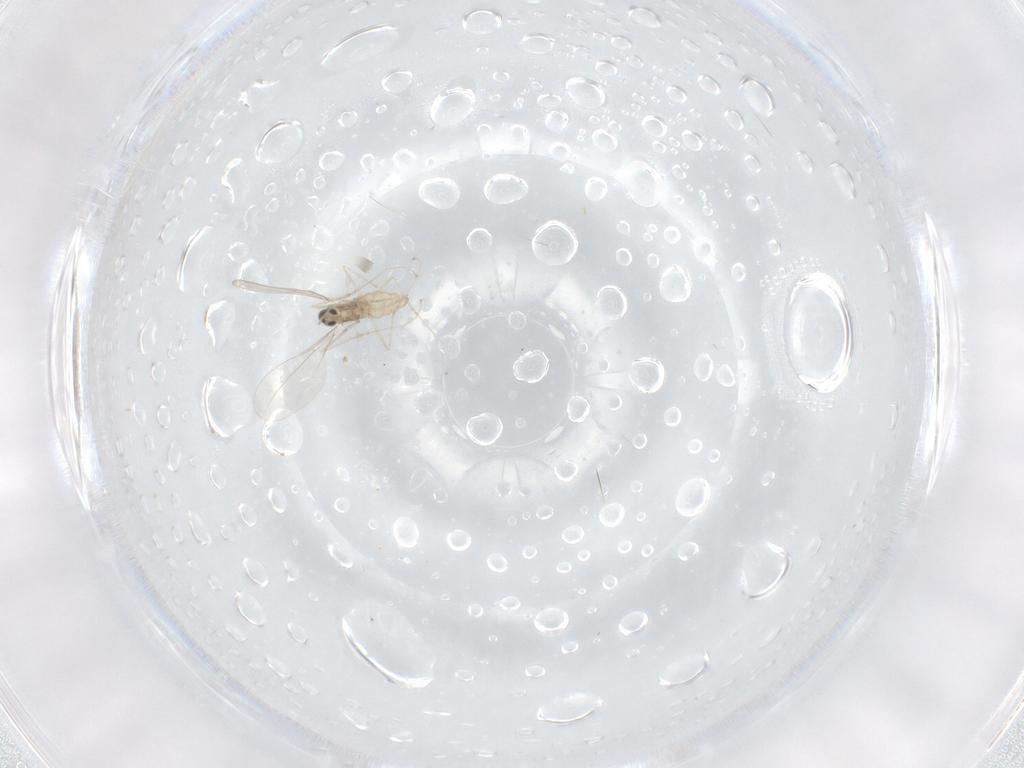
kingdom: Animalia
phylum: Arthropoda
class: Insecta
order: Diptera
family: Cecidomyiidae
